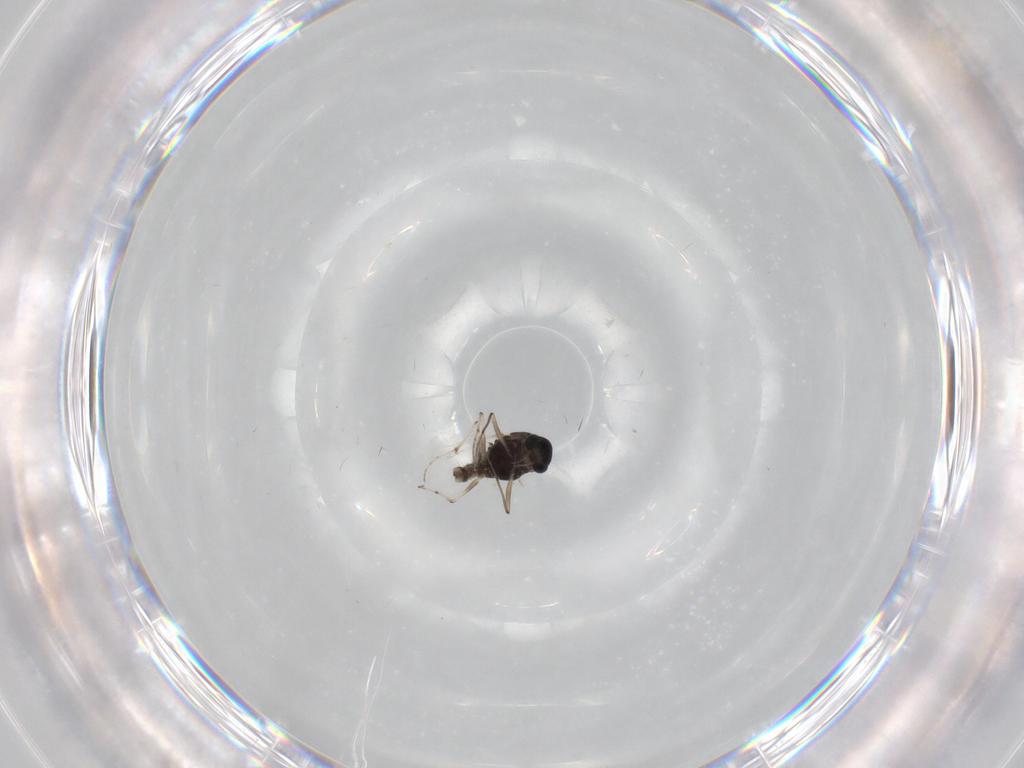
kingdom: Animalia
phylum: Arthropoda
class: Insecta
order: Diptera
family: Chironomidae
